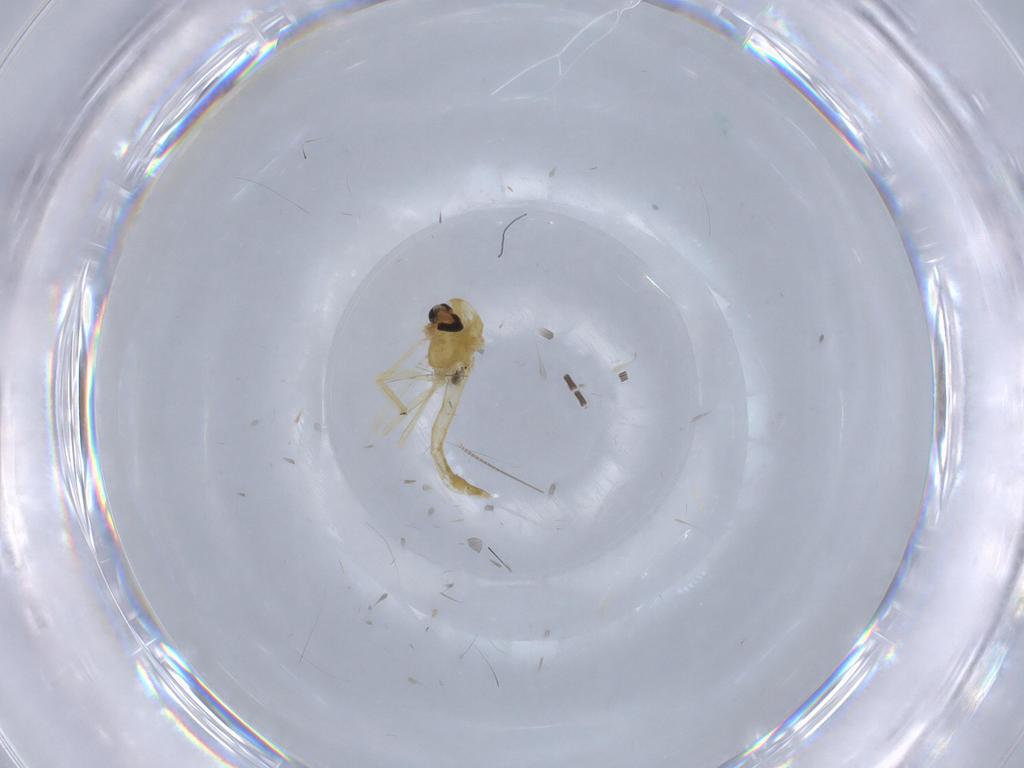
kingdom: Animalia
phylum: Arthropoda
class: Insecta
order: Diptera
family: Chironomidae
